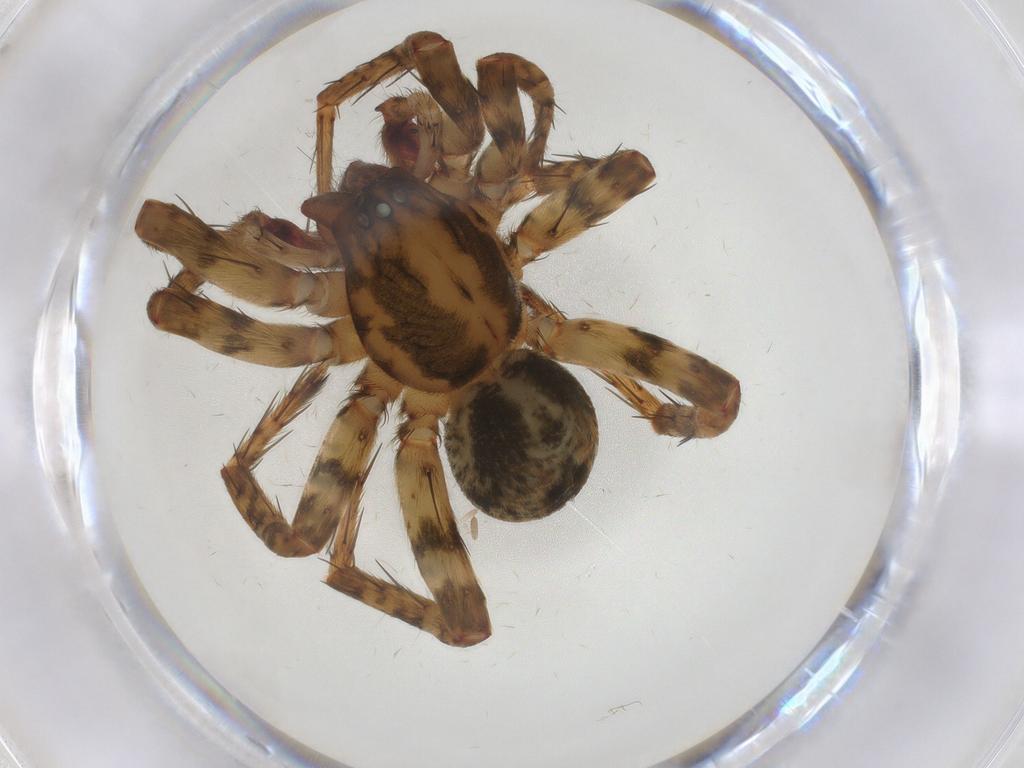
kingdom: Animalia
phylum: Arthropoda
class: Arachnida
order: Araneae
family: Anyphaenidae
